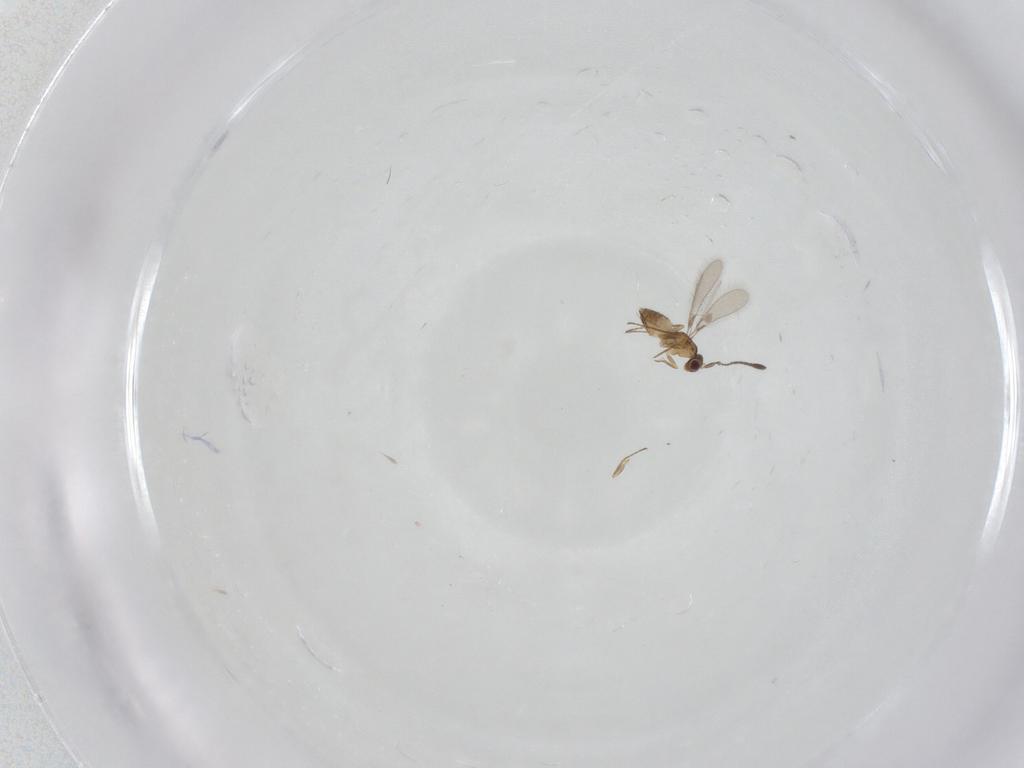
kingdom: Animalia
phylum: Arthropoda
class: Insecta
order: Hymenoptera
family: Mymaridae
